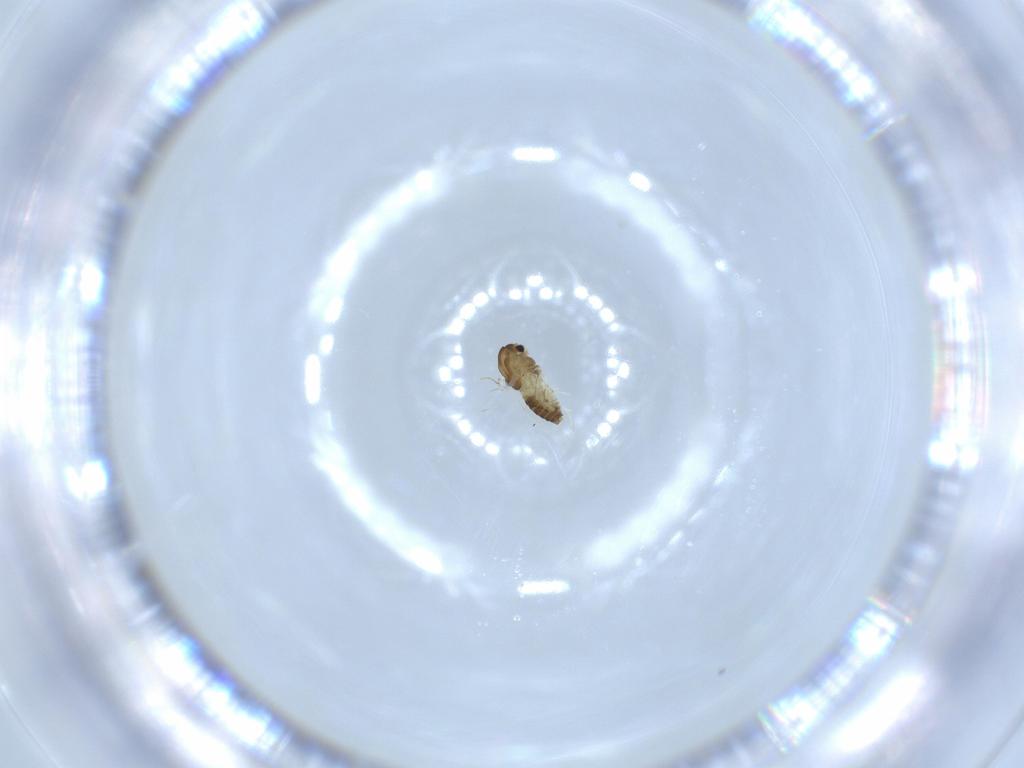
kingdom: Animalia
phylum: Arthropoda
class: Insecta
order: Diptera
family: Chironomidae
